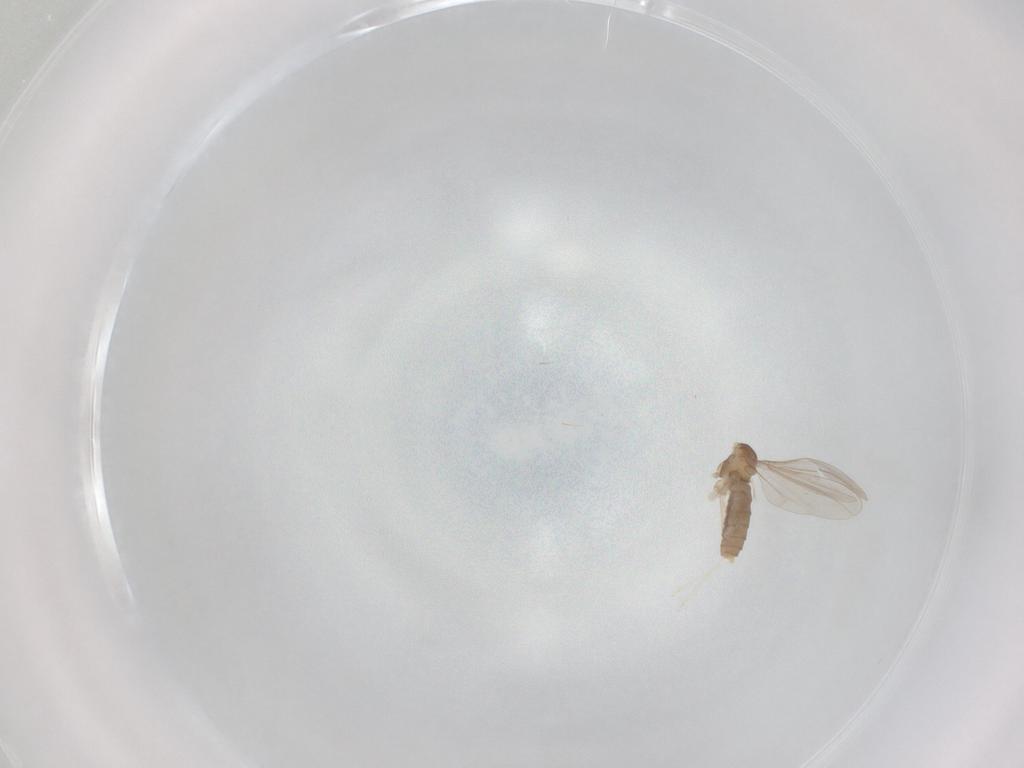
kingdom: Animalia
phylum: Arthropoda
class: Insecta
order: Diptera
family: Cecidomyiidae
